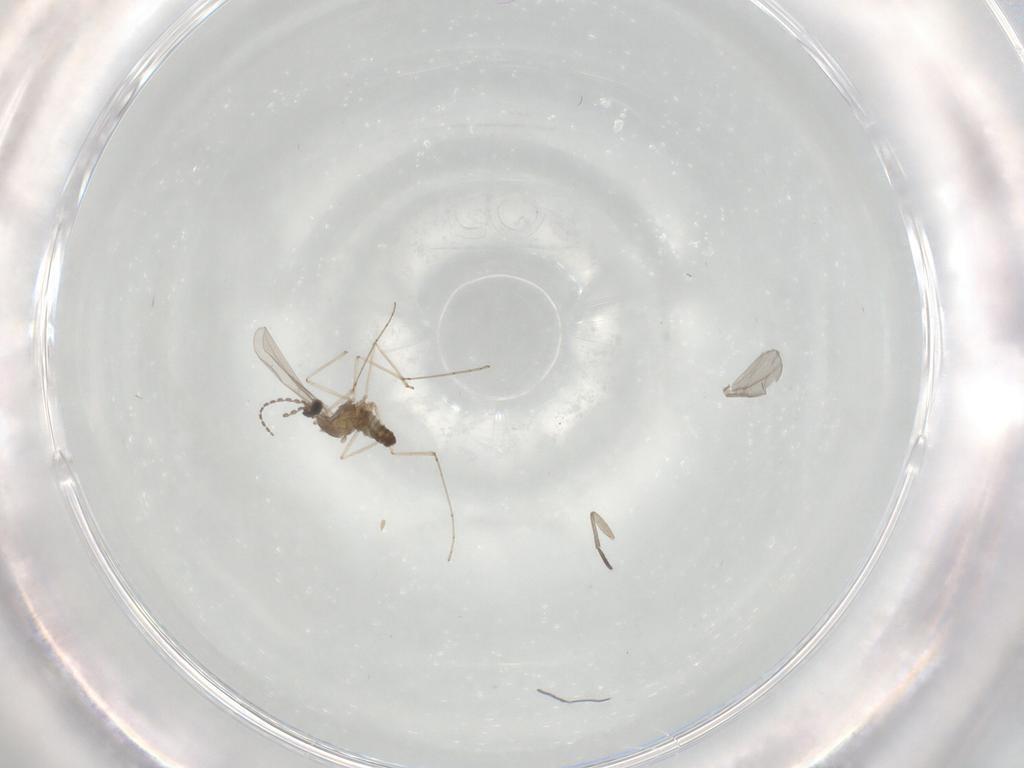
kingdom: Animalia
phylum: Arthropoda
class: Insecta
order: Diptera
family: Cecidomyiidae
